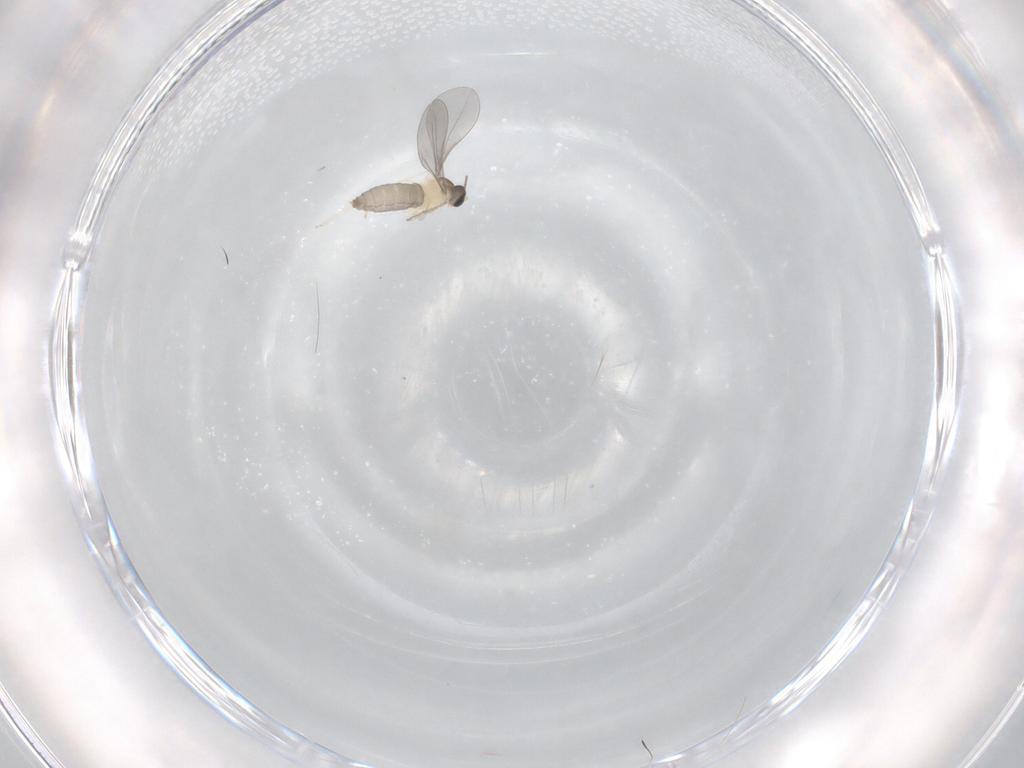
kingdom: Animalia
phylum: Arthropoda
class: Insecta
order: Diptera
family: Cecidomyiidae
